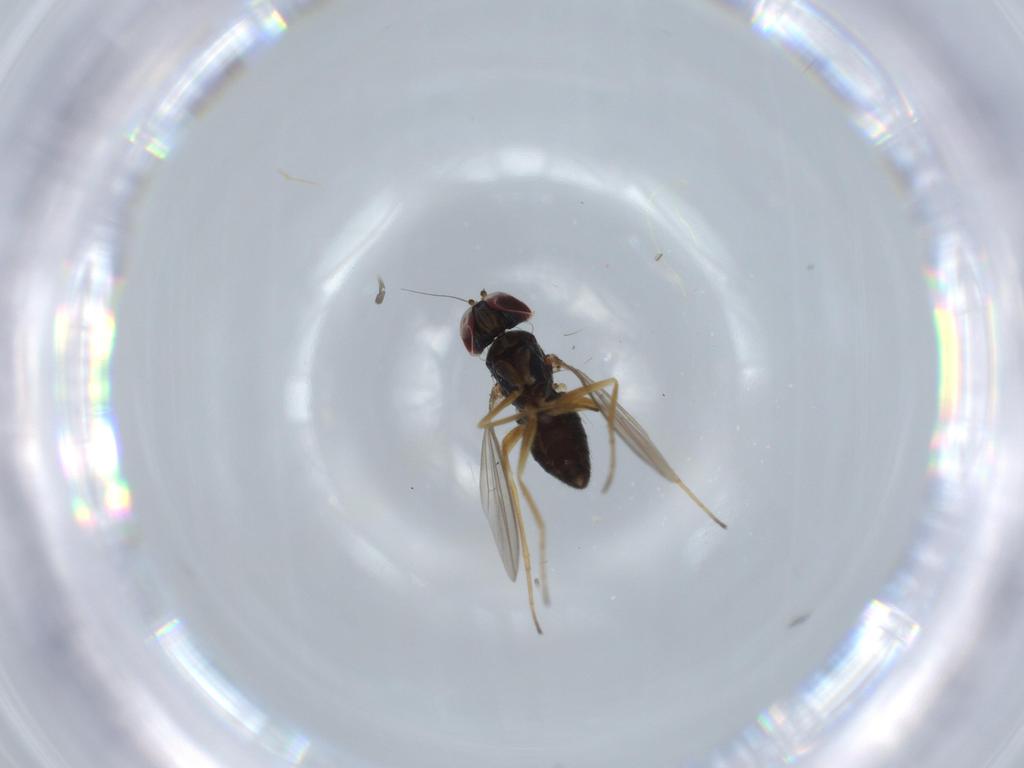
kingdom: Animalia
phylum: Arthropoda
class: Insecta
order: Diptera
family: Dolichopodidae
